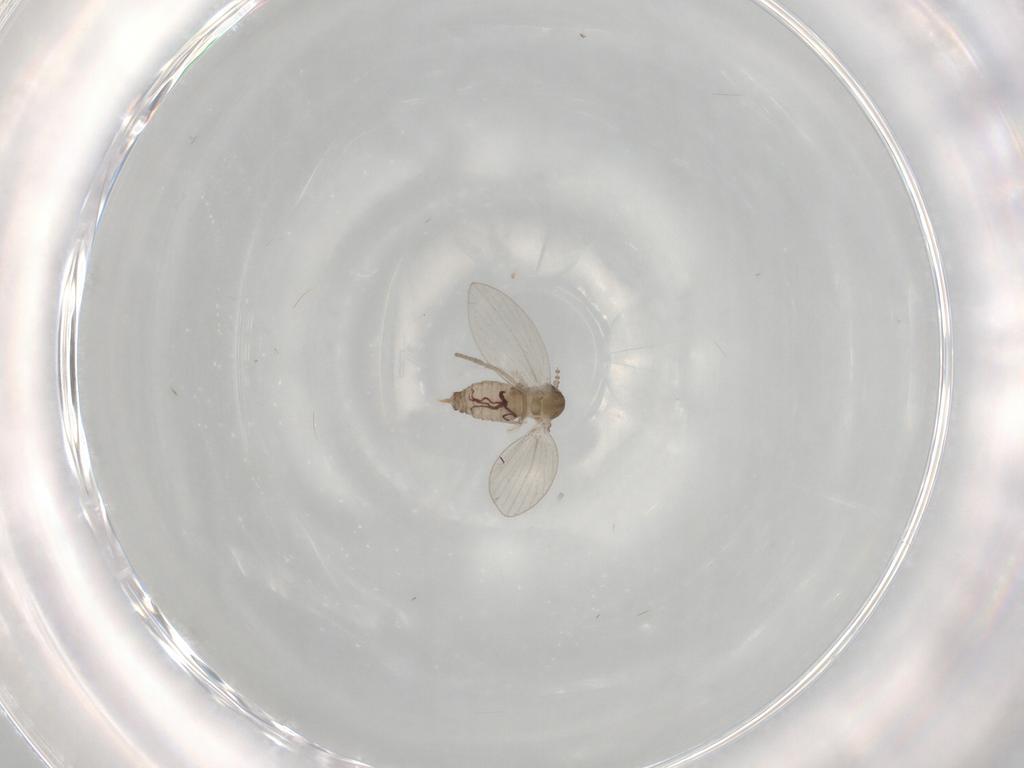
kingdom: Animalia
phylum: Arthropoda
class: Insecta
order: Diptera
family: Psychodidae
